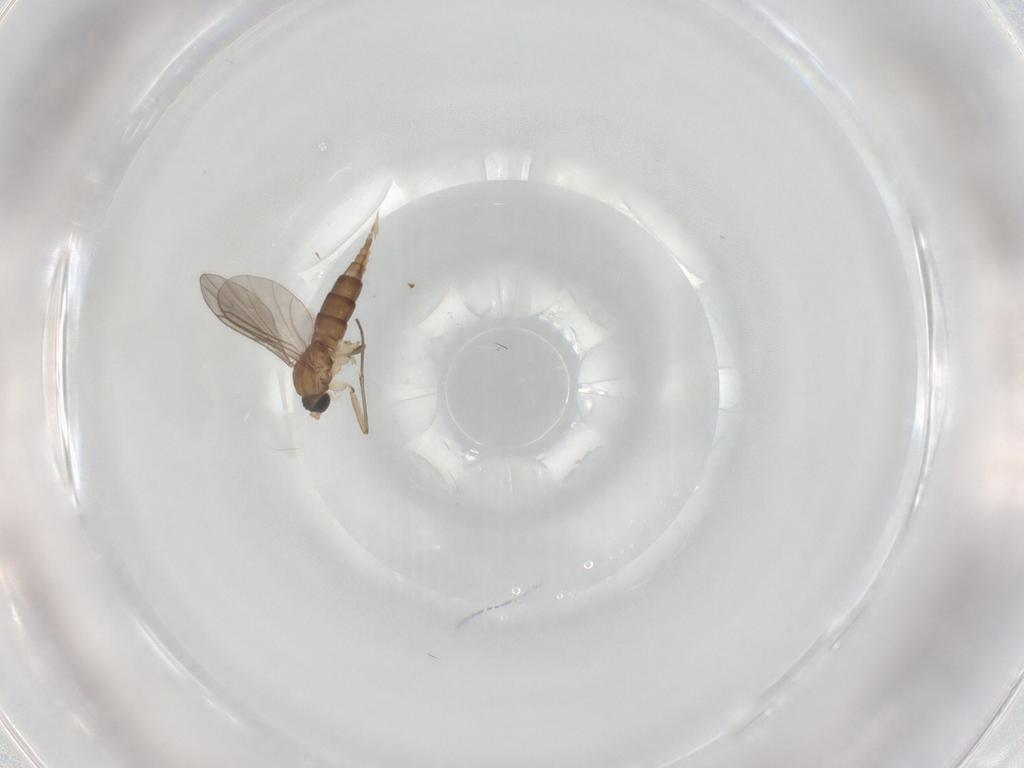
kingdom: Animalia
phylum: Arthropoda
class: Insecta
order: Diptera
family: Sciaridae
